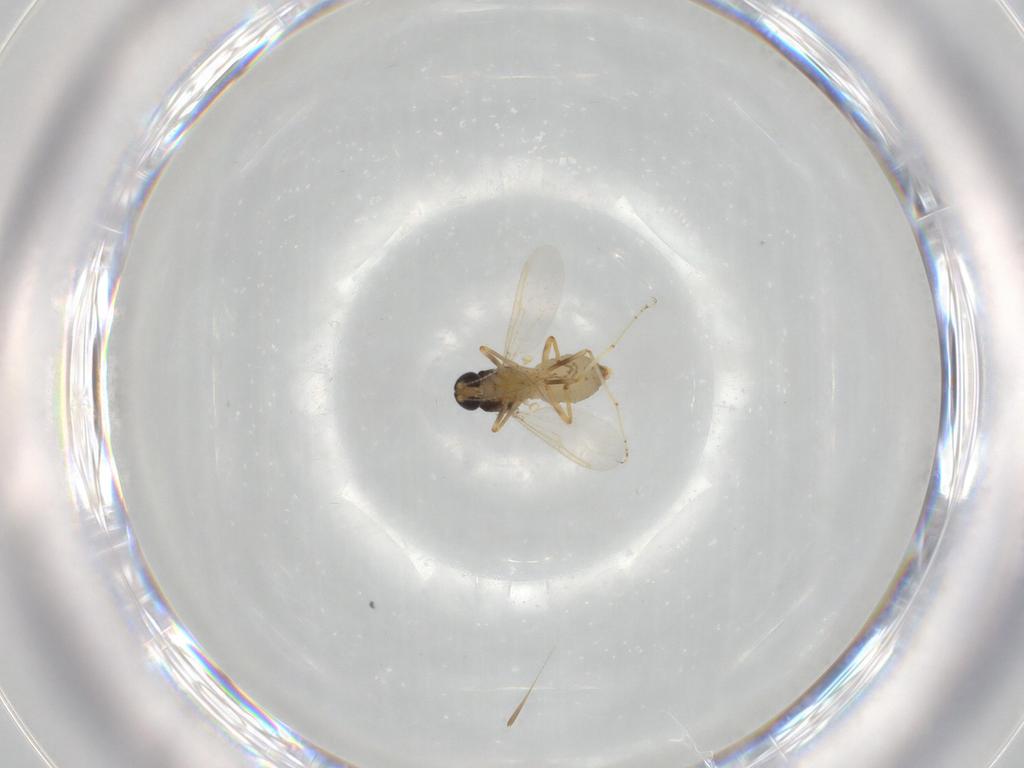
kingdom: Animalia
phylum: Arthropoda
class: Insecta
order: Diptera
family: Ceratopogonidae
